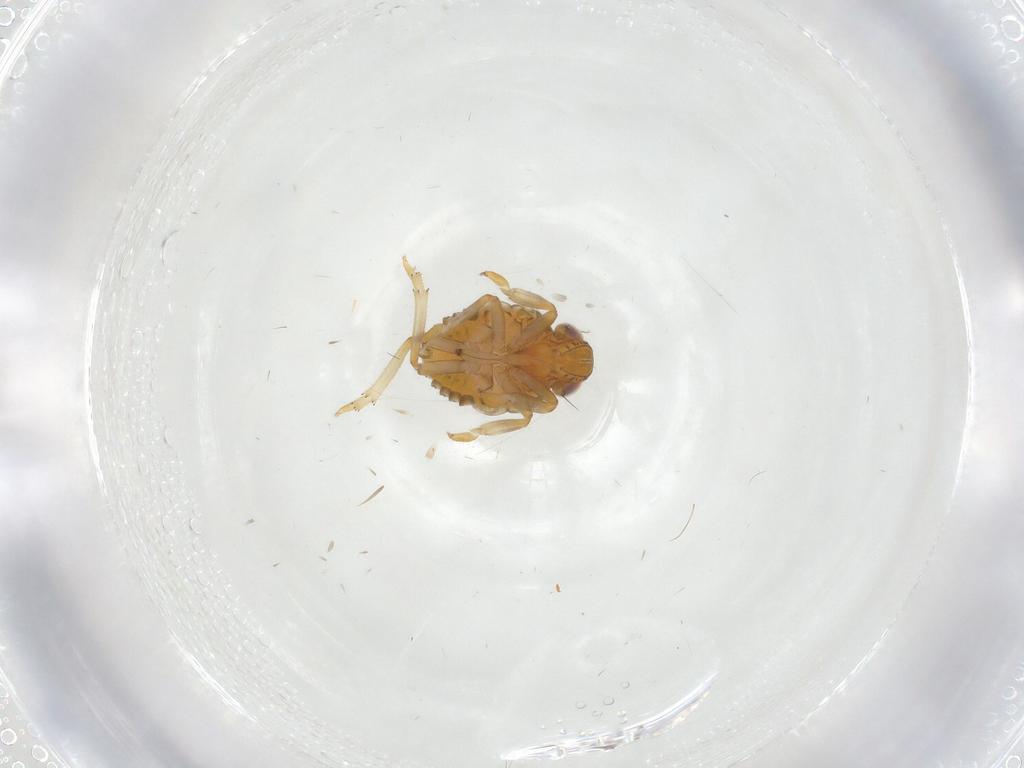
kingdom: Animalia
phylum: Arthropoda
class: Insecta
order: Hemiptera
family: Issidae
